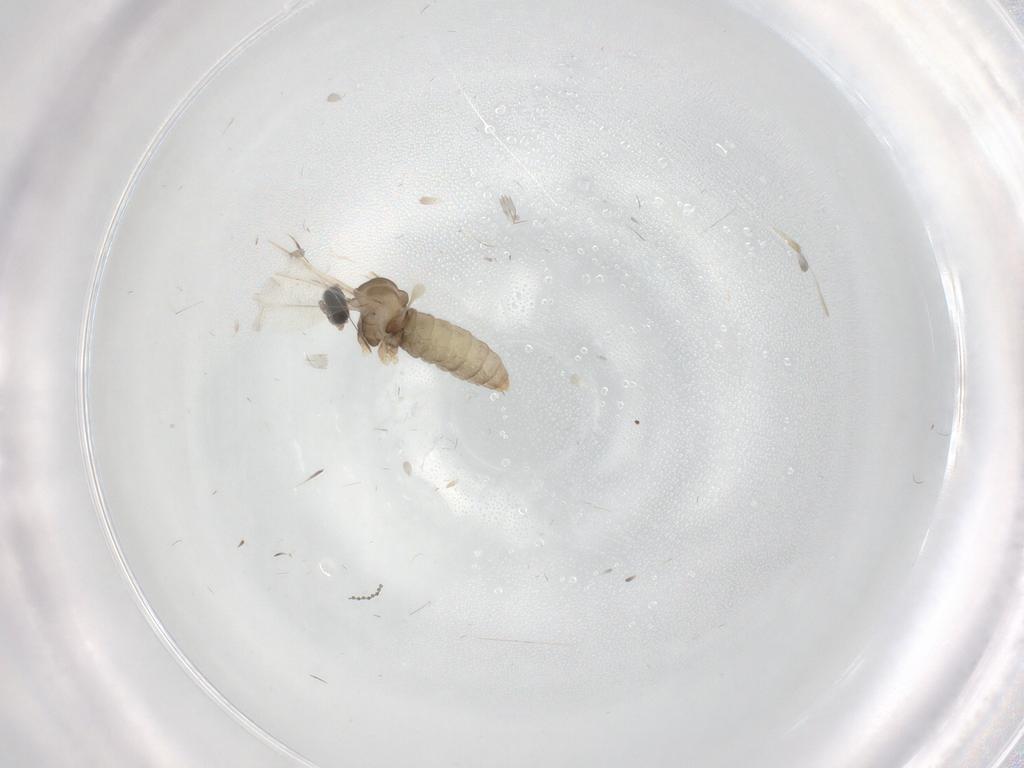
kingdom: Animalia
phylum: Arthropoda
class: Insecta
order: Diptera
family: Cecidomyiidae
